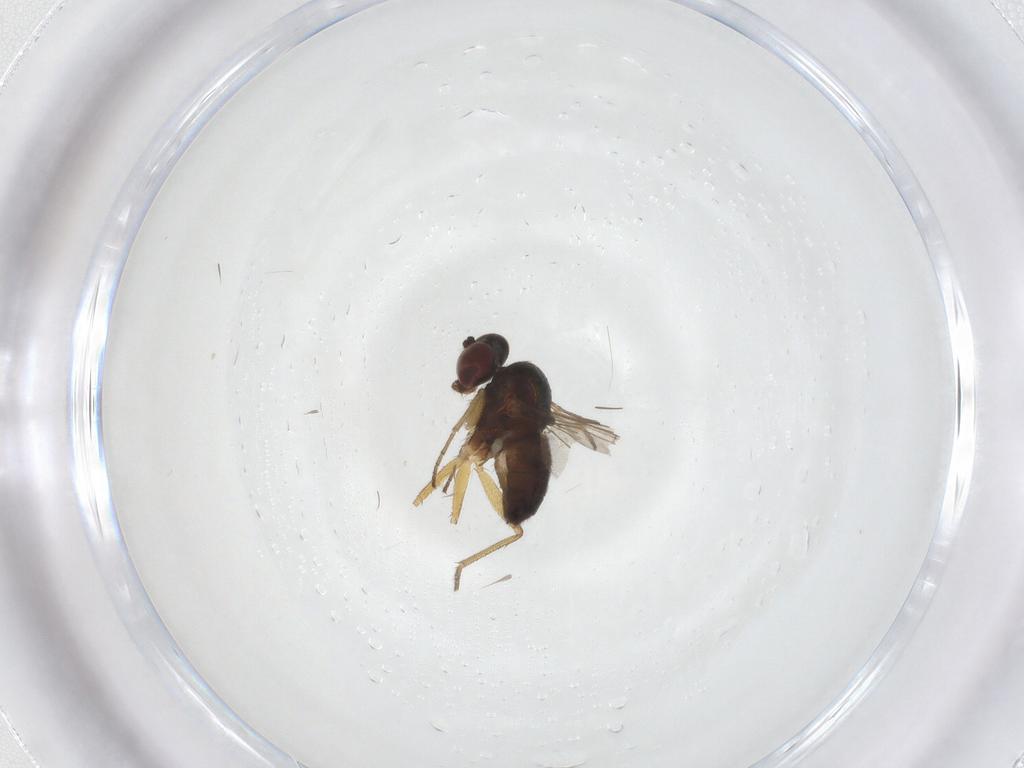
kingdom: Animalia
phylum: Arthropoda
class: Insecta
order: Diptera
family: Dolichopodidae
